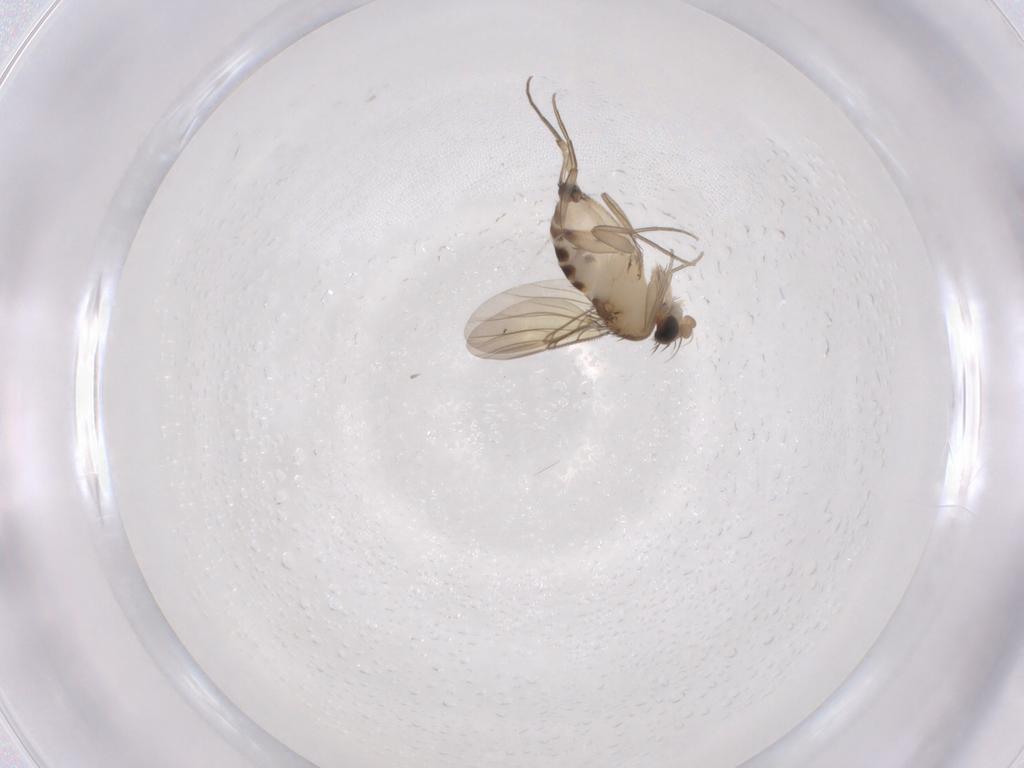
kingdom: Animalia
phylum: Arthropoda
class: Insecta
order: Diptera
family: Phoridae
